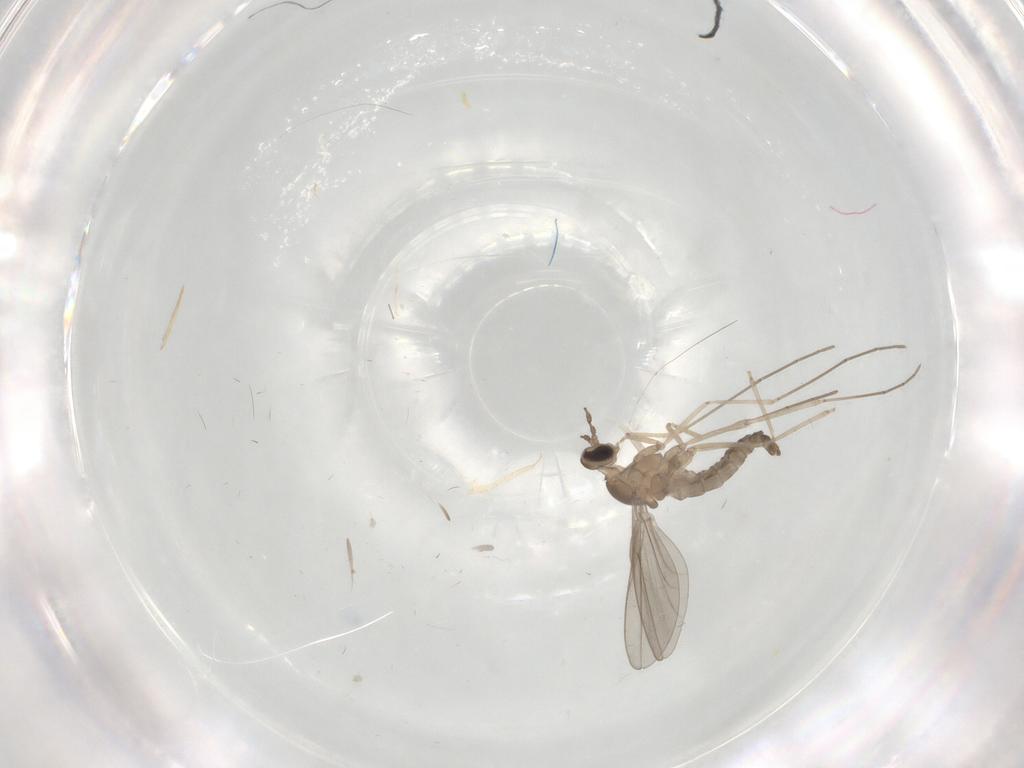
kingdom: Animalia
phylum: Arthropoda
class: Insecta
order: Diptera
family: Cecidomyiidae
